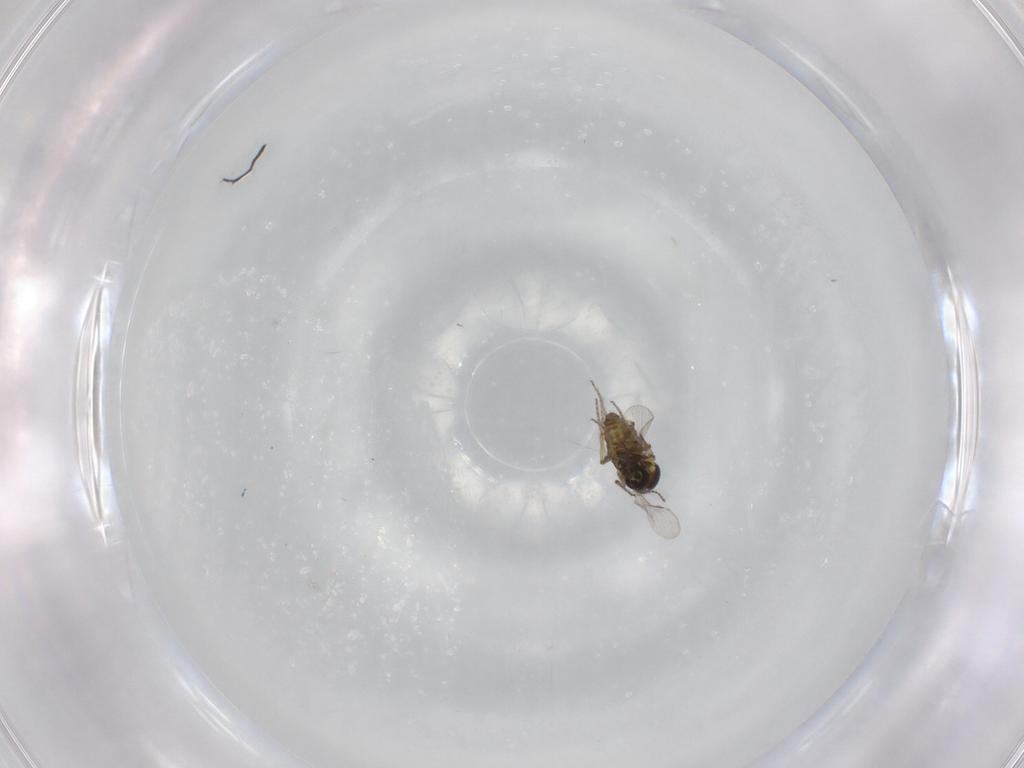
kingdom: Animalia
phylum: Arthropoda
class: Insecta
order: Diptera
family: Ceratopogonidae
